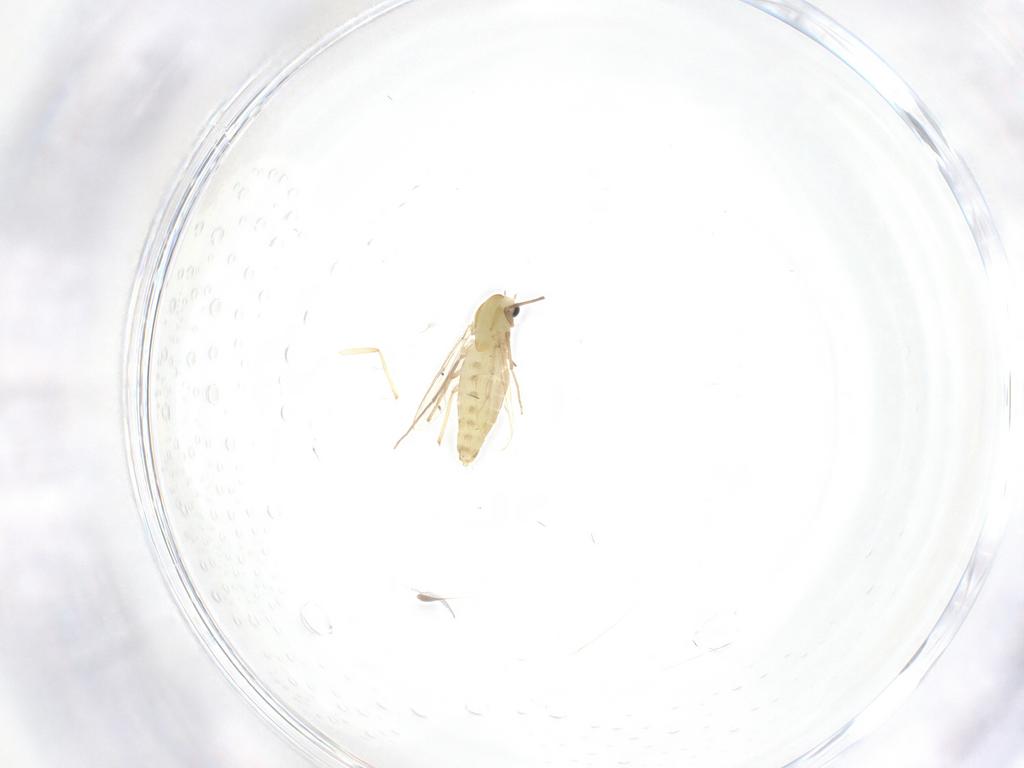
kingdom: Animalia
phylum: Arthropoda
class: Insecta
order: Diptera
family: Chironomidae
